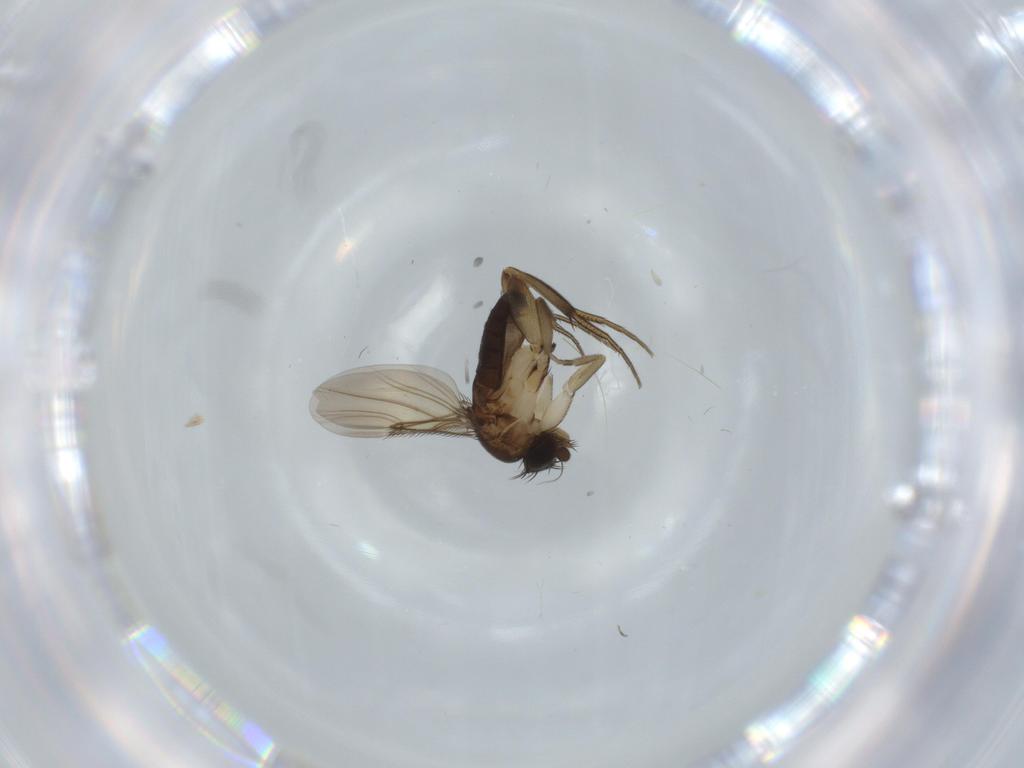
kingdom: Animalia
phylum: Arthropoda
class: Insecta
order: Diptera
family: Phoridae
